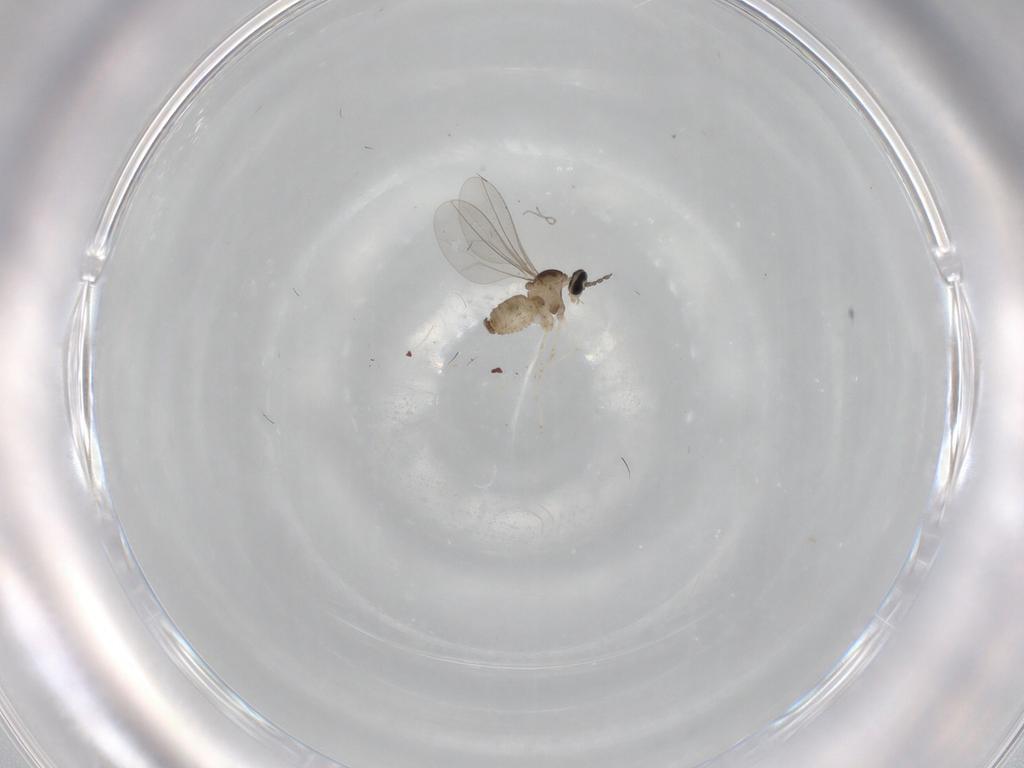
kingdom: Animalia
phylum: Arthropoda
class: Insecta
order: Diptera
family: Cecidomyiidae
